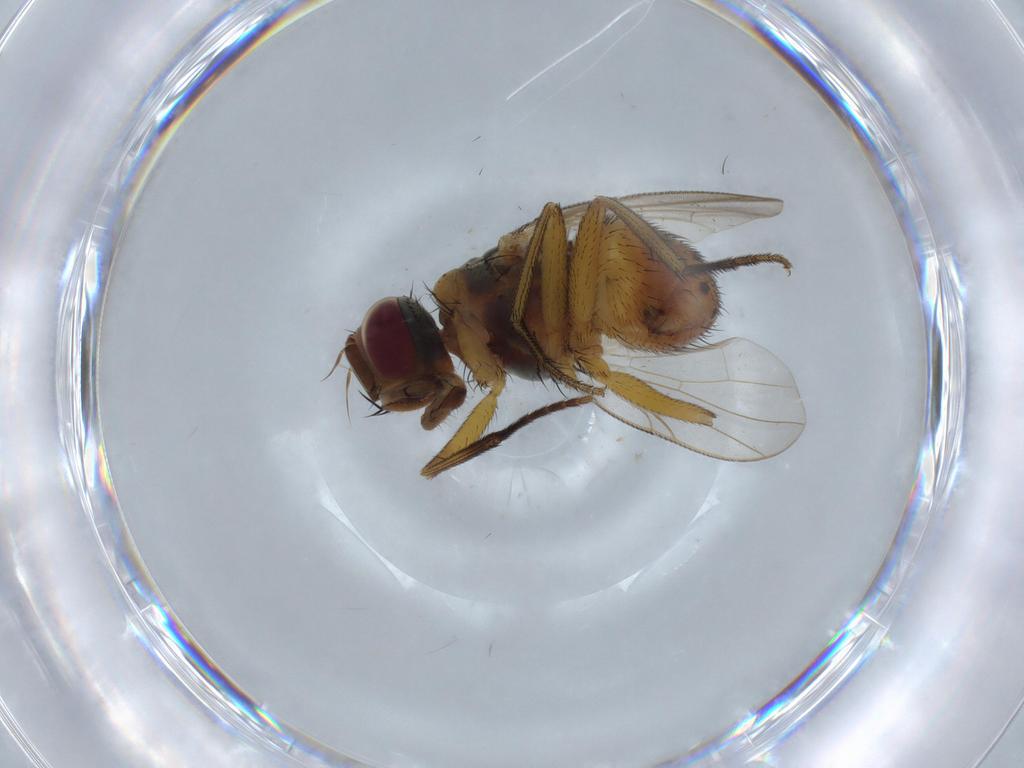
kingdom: Animalia
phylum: Arthropoda
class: Insecta
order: Diptera
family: Muscidae
